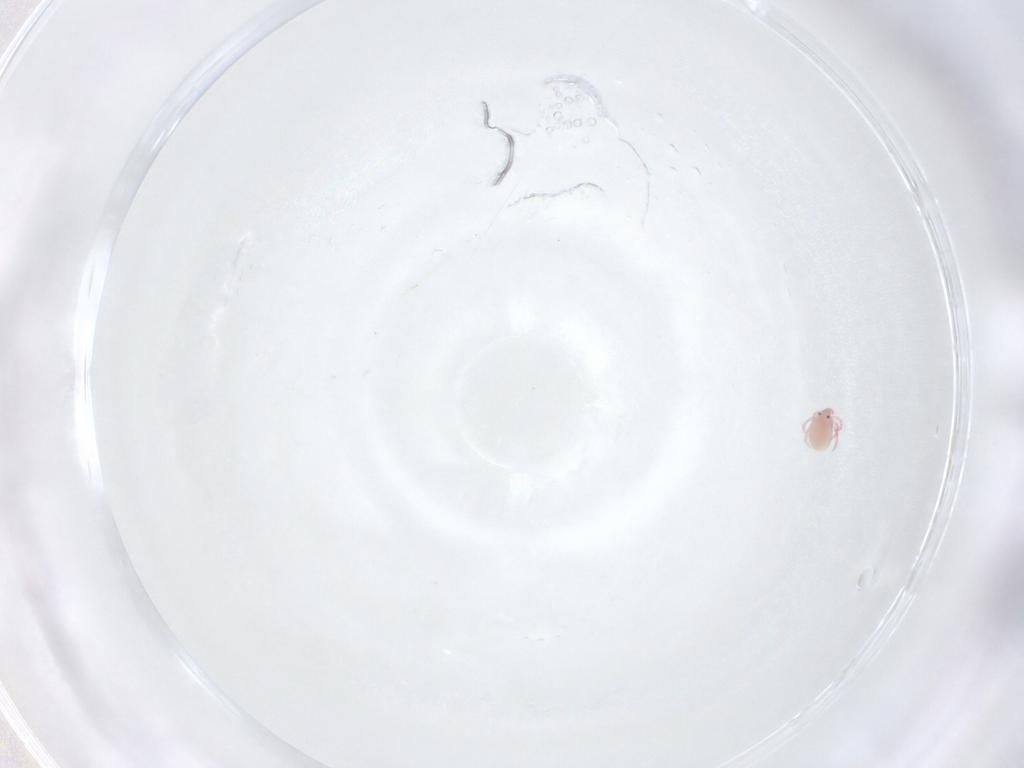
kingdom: Animalia
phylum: Arthropoda
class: Arachnida
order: Trombidiformes
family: Pionidae
